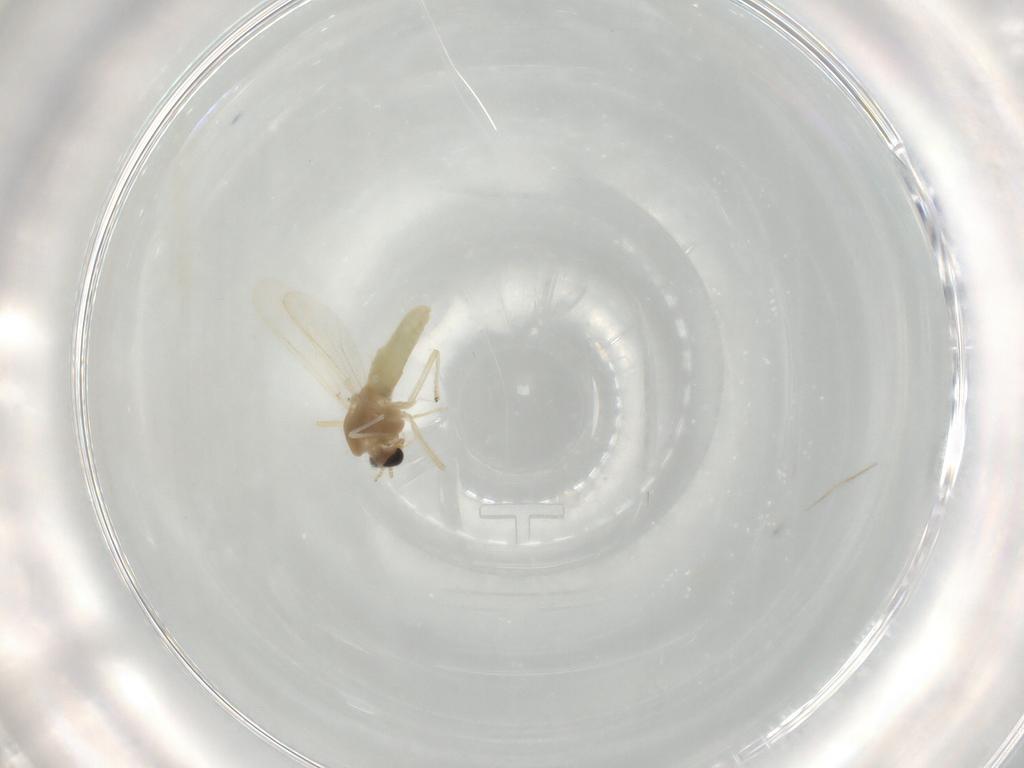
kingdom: Animalia
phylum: Arthropoda
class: Insecta
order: Diptera
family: Chironomidae
